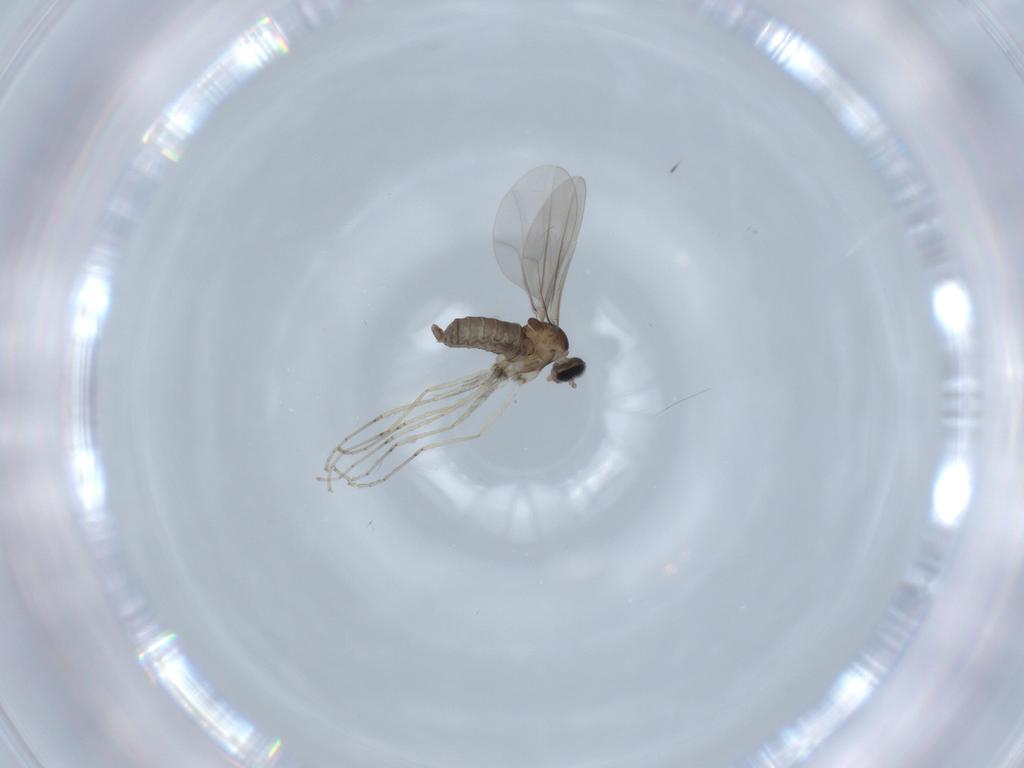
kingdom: Animalia
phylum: Arthropoda
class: Insecta
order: Diptera
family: Cecidomyiidae
